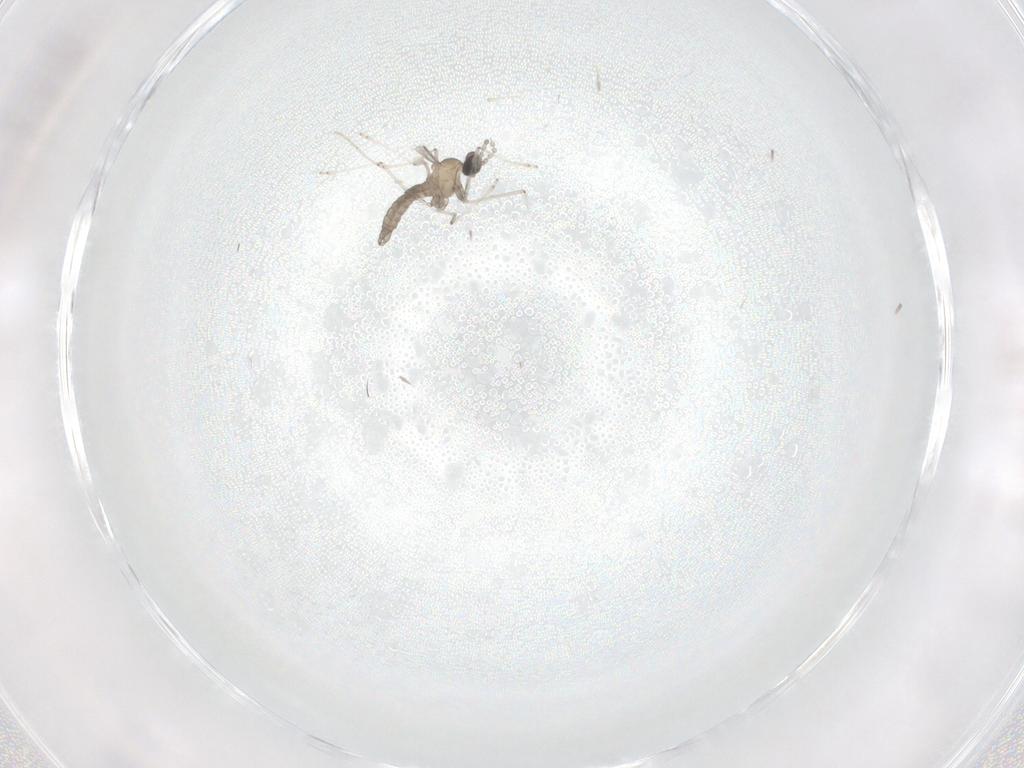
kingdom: Animalia
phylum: Arthropoda
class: Insecta
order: Diptera
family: Cecidomyiidae
